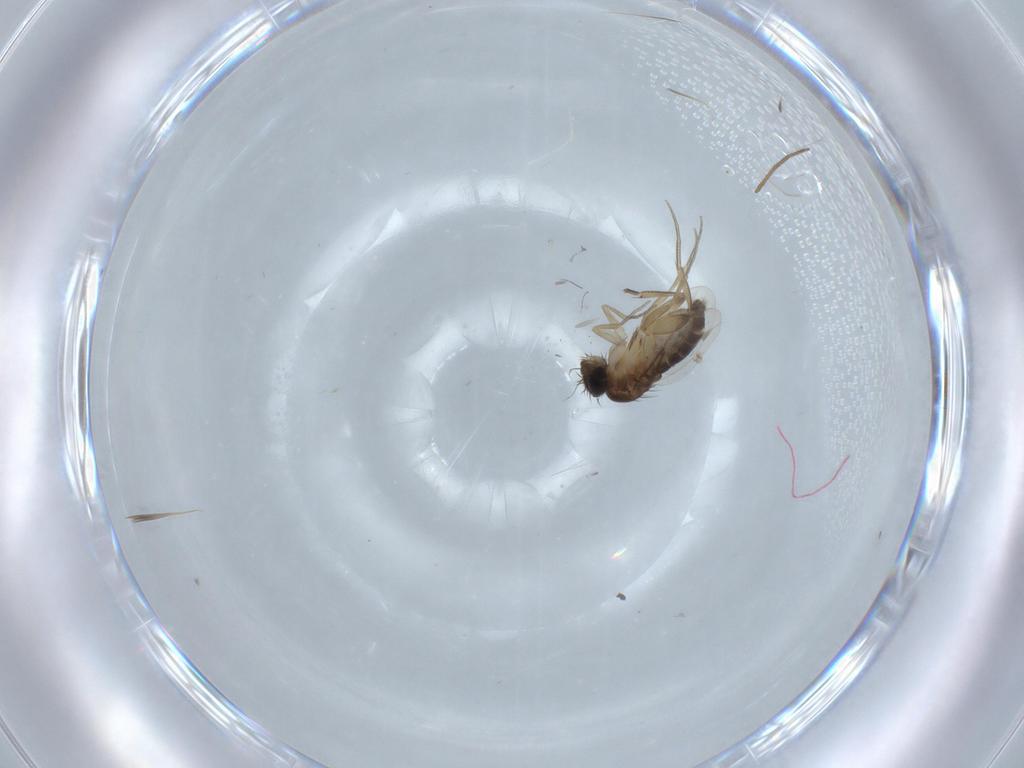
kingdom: Animalia
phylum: Arthropoda
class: Insecta
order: Diptera
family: Phoridae
